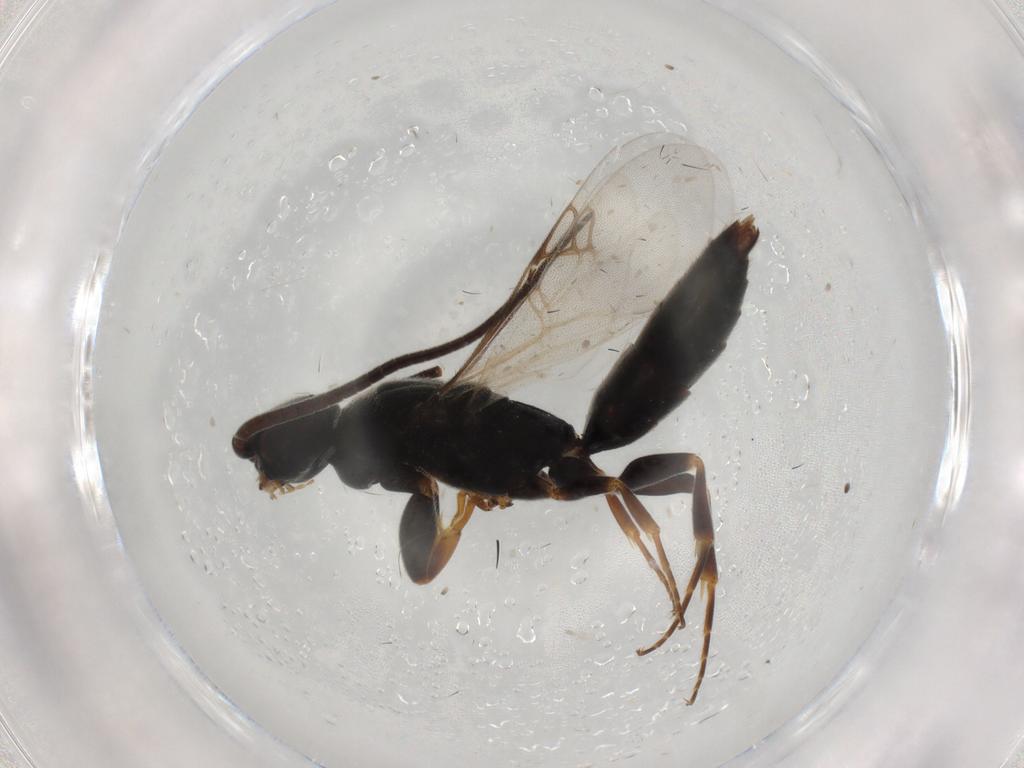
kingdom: Animalia
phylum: Arthropoda
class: Insecta
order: Hymenoptera
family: Sclerogibbidae
